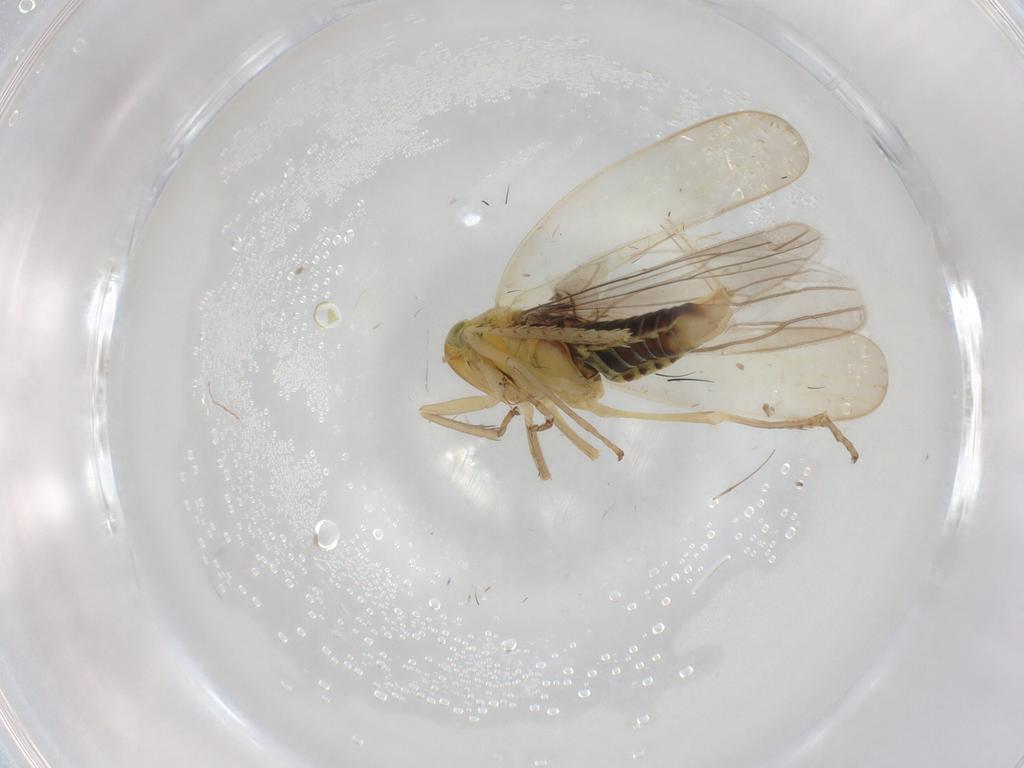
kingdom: Animalia
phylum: Arthropoda
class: Insecta
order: Hemiptera
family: Cicadellidae
